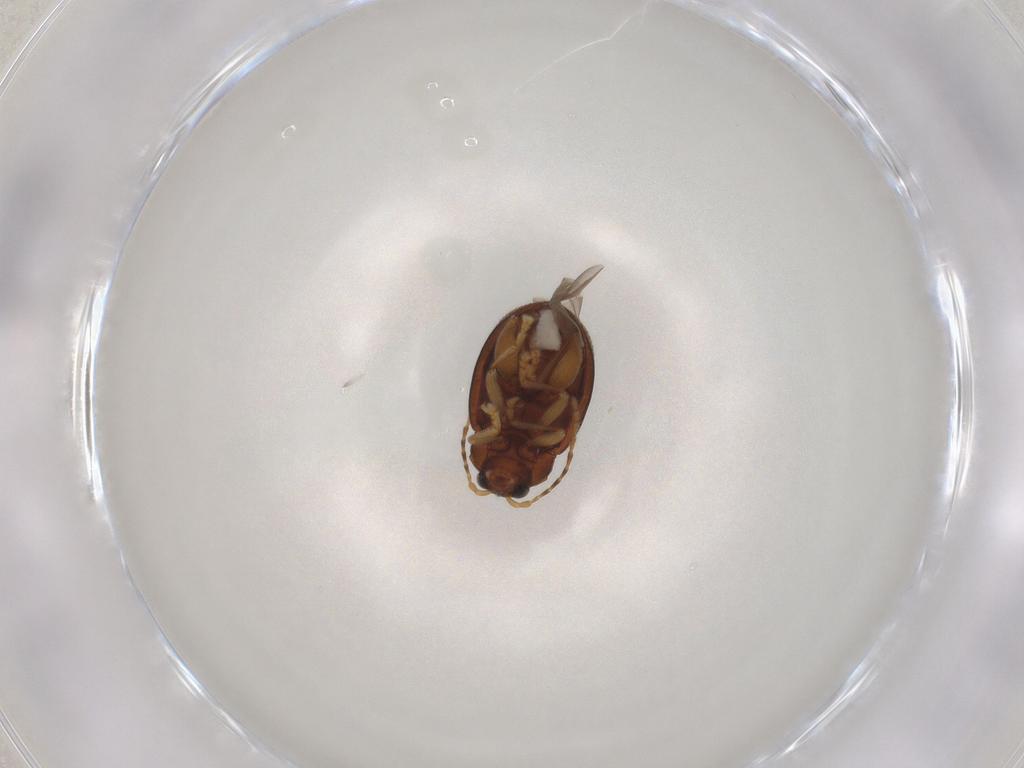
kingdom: Animalia
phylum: Arthropoda
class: Insecta
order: Coleoptera
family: Chrysomelidae
